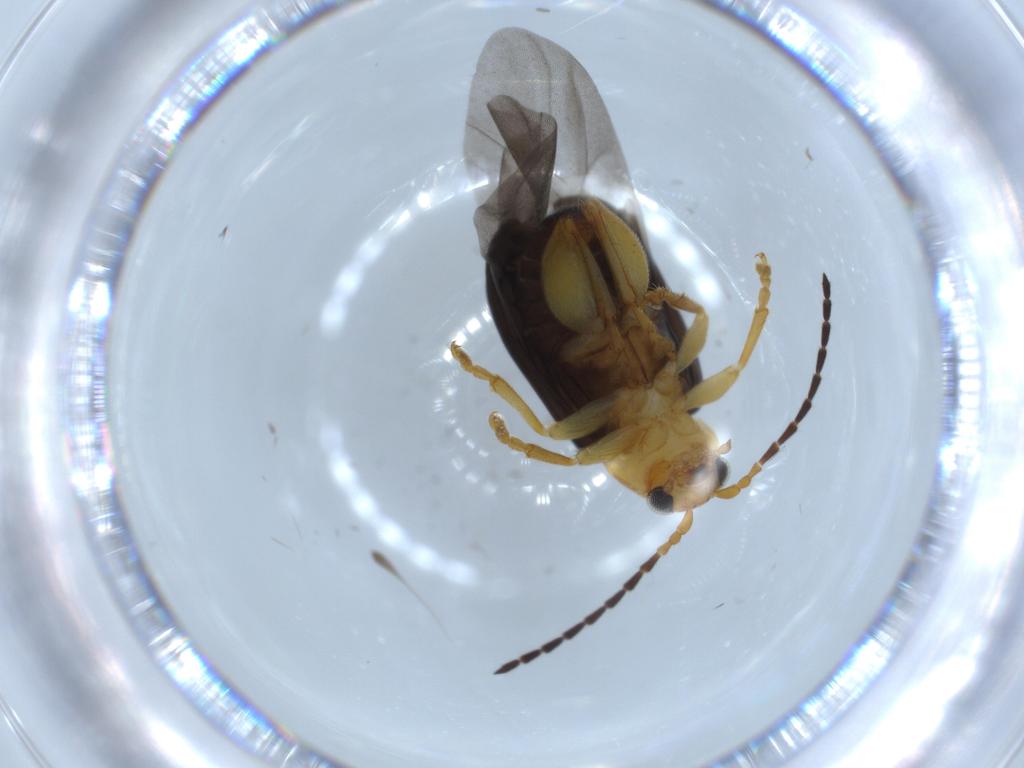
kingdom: Animalia
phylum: Arthropoda
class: Insecta
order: Coleoptera
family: Chrysomelidae
